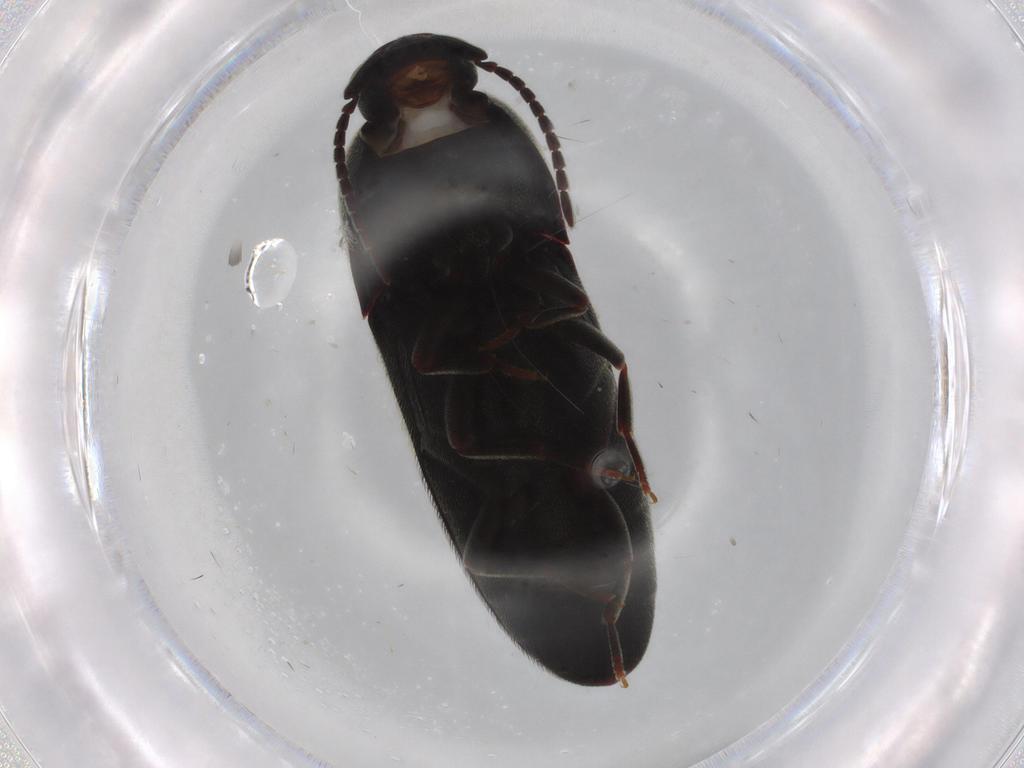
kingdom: Animalia
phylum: Arthropoda
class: Insecta
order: Coleoptera
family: Eucnemidae
